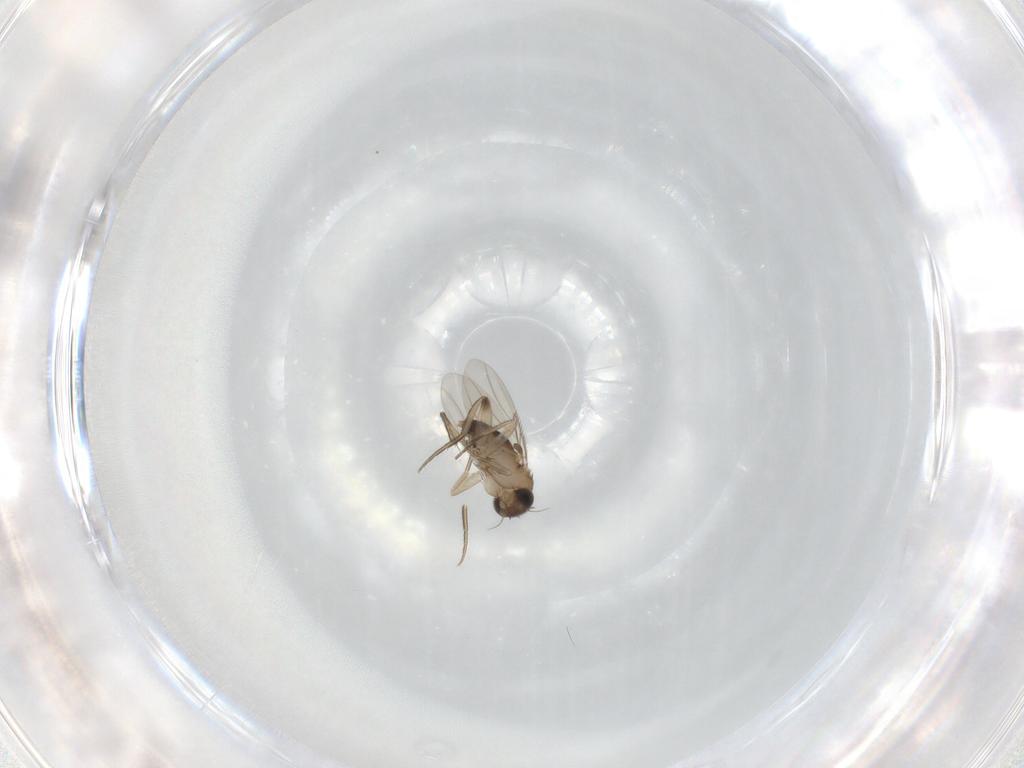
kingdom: Animalia
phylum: Arthropoda
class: Insecta
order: Diptera
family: Phoridae
